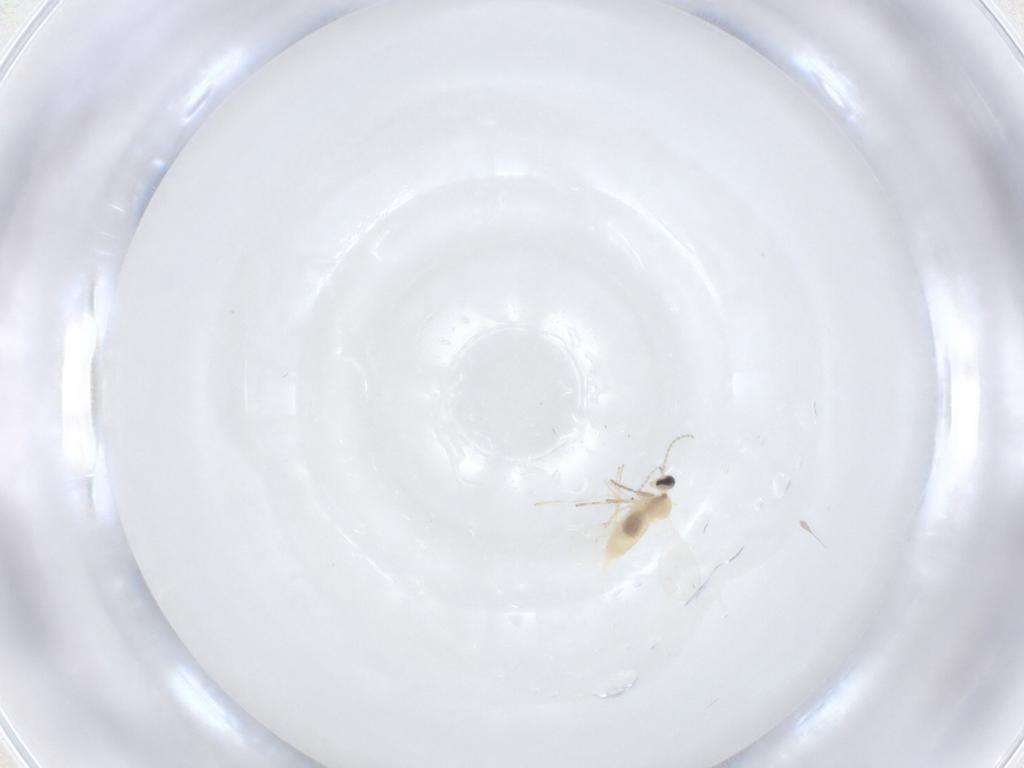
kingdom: Animalia
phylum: Arthropoda
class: Insecta
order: Diptera
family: Cecidomyiidae
